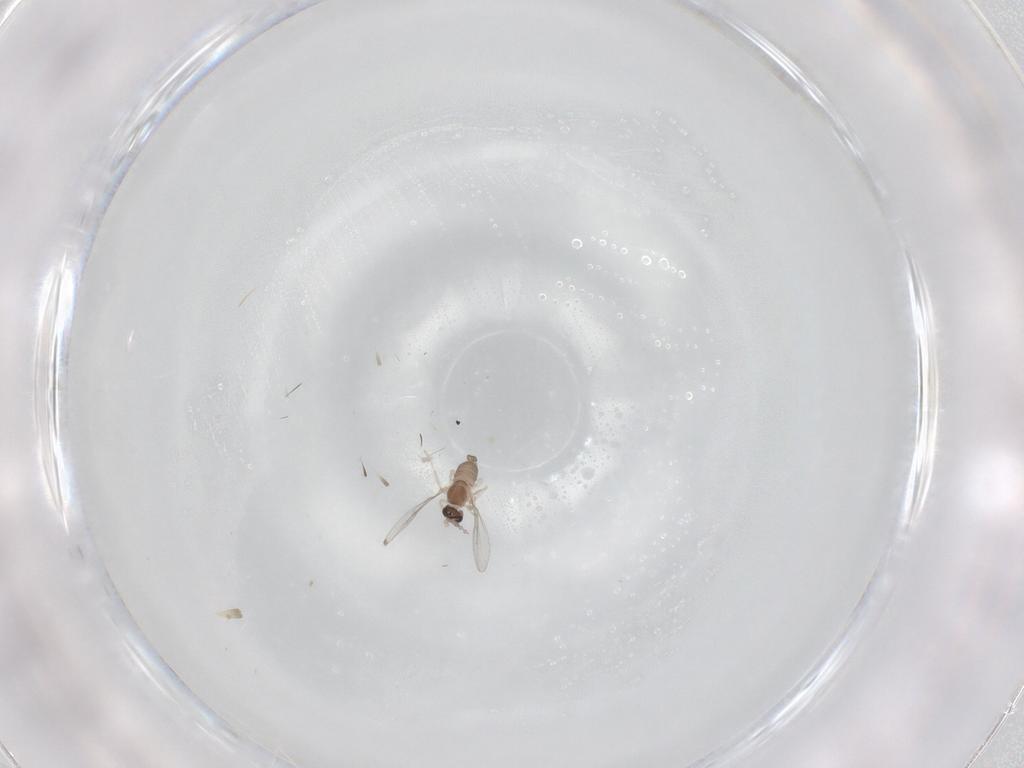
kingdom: Animalia
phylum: Arthropoda
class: Insecta
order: Diptera
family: Cecidomyiidae
